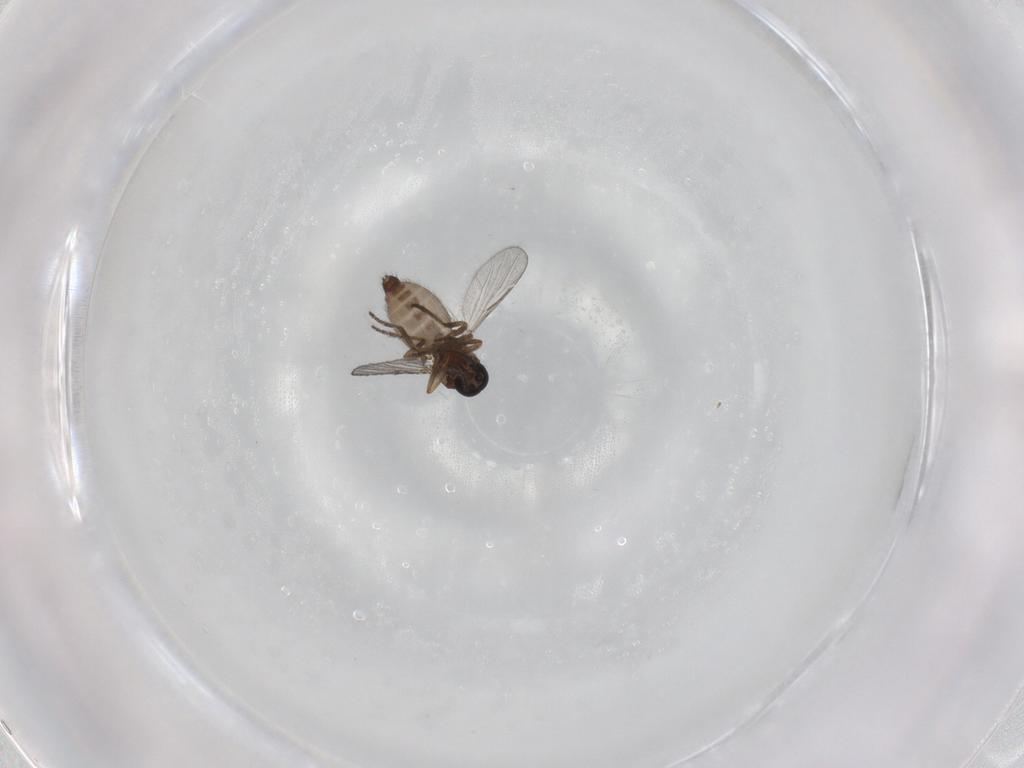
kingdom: Animalia
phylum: Arthropoda
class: Insecta
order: Diptera
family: Ceratopogonidae
